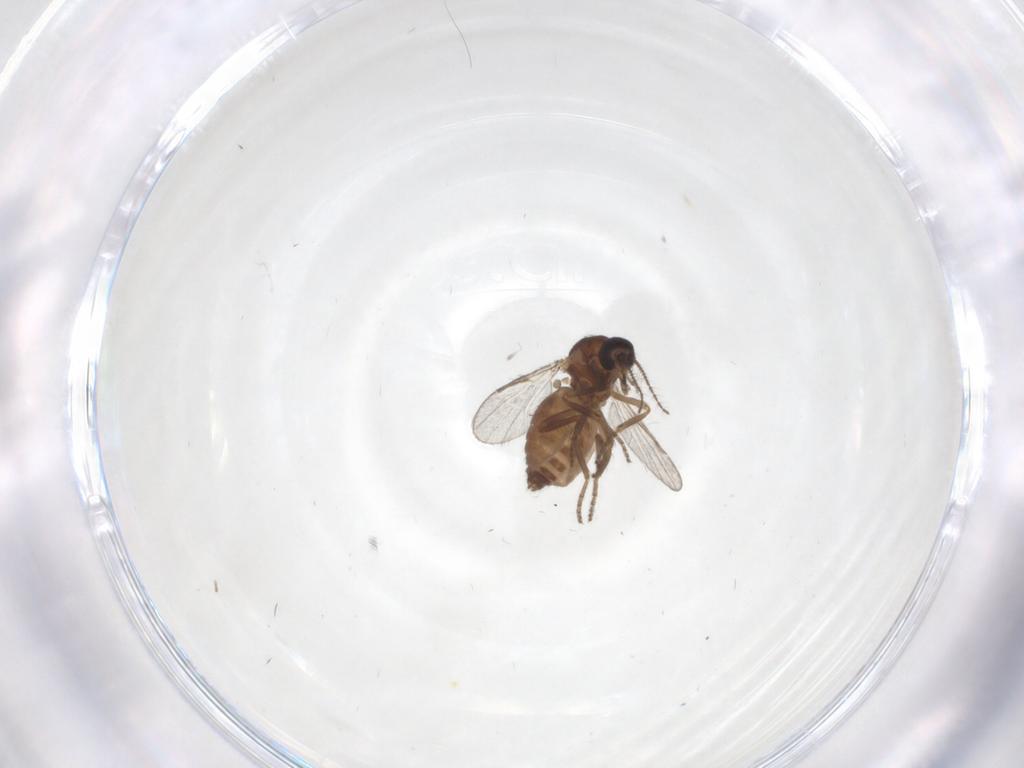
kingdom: Animalia
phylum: Arthropoda
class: Insecta
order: Diptera
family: Ceratopogonidae
